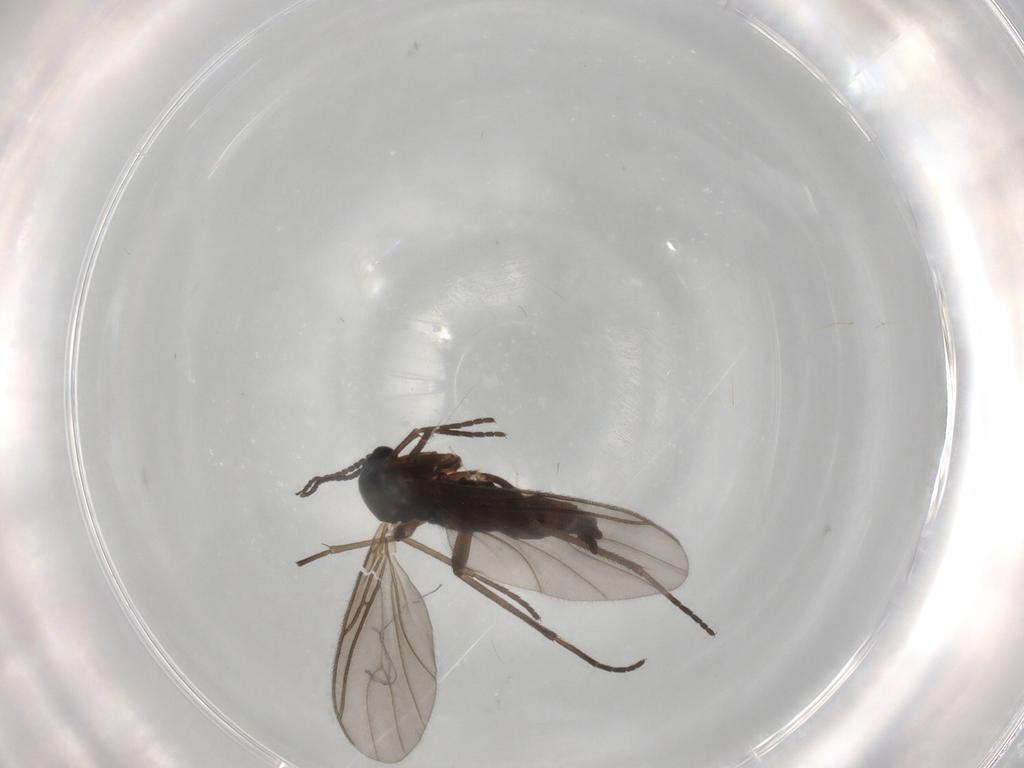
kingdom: Animalia
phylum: Arthropoda
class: Insecta
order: Diptera
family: Sciaridae
